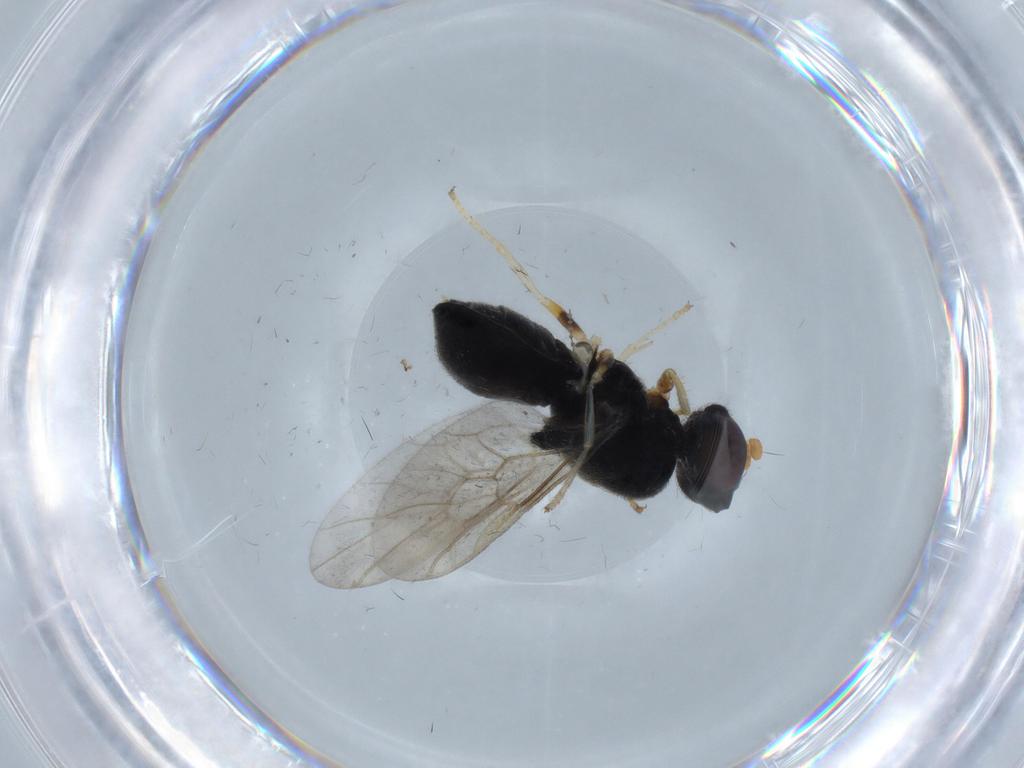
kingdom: Animalia
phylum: Arthropoda
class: Insecta
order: Diptera
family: Stratiomyidae
